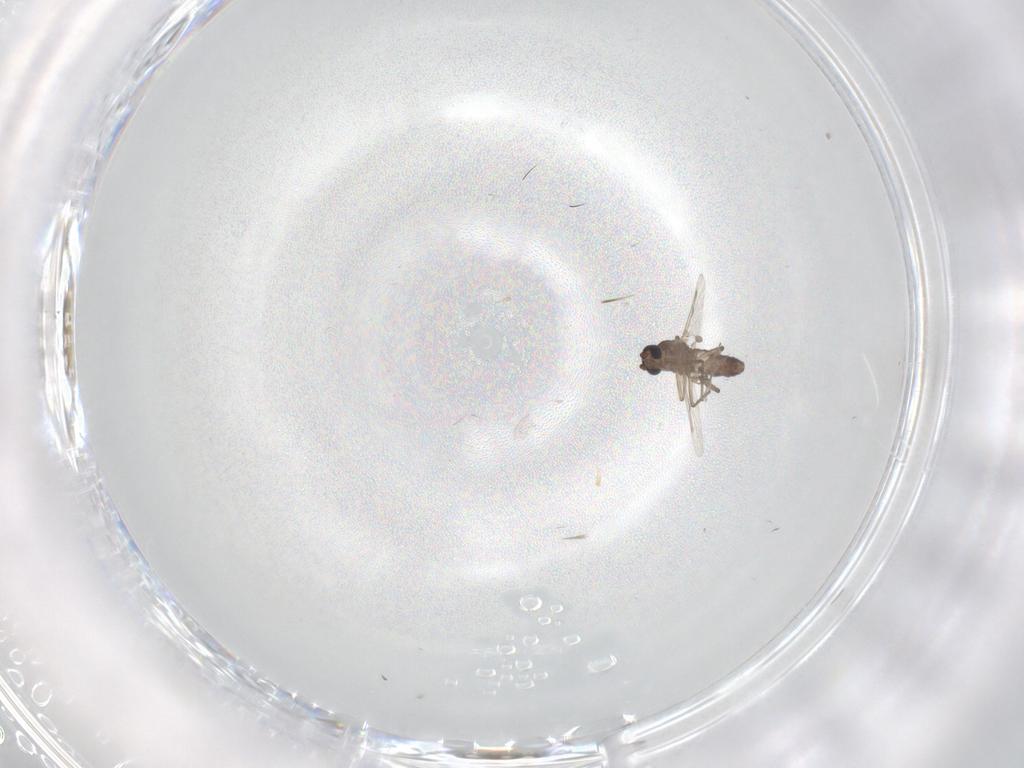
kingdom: Animalia
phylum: Arthropoda
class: Insecta
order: Diptera
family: Ceratopogonidae
